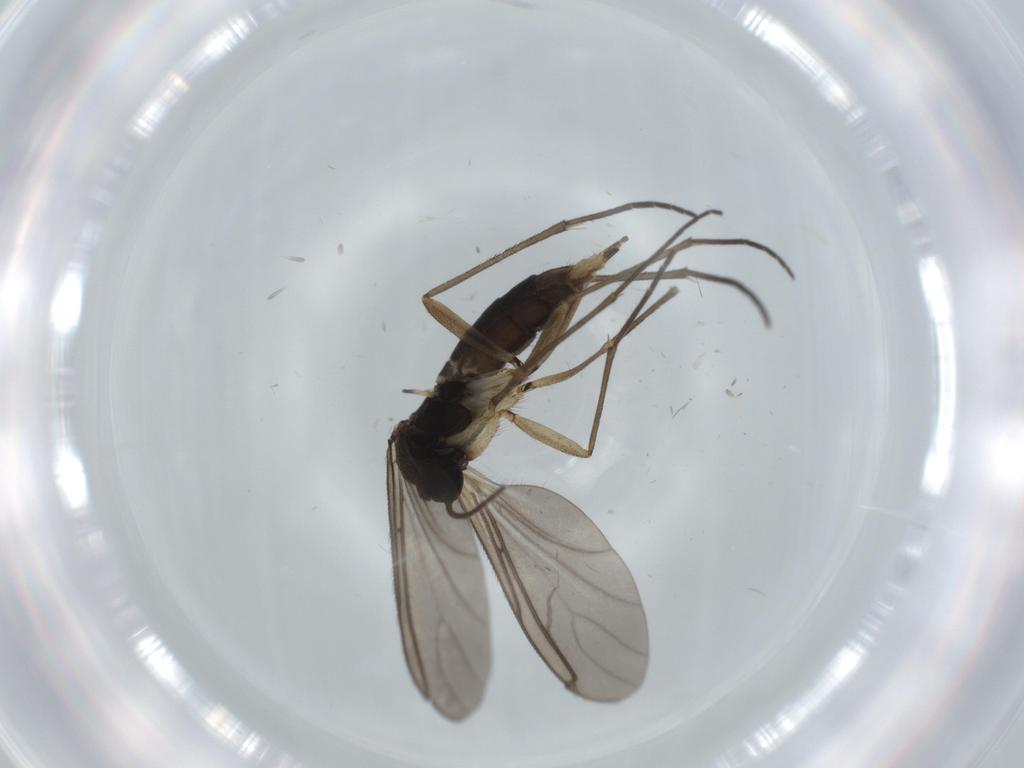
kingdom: Animalia
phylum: Arthropoda
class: Insecta
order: Diptera
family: Sciaridae
